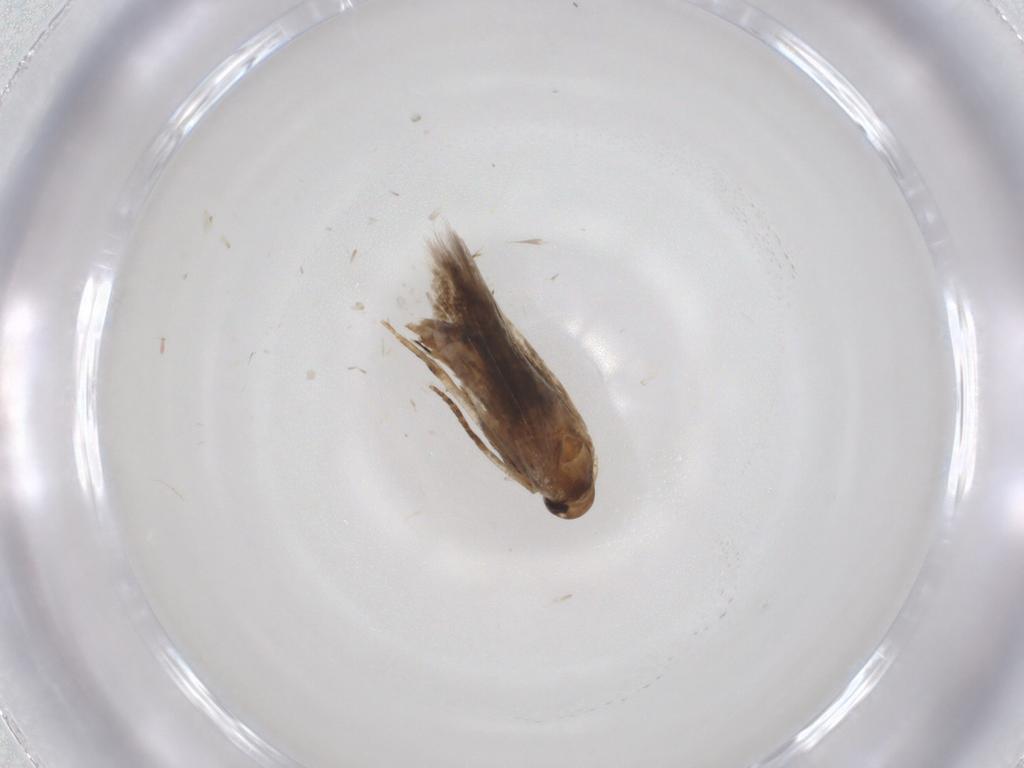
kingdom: Animalia
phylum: Arthropoda
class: Insecta
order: Lepidoptera
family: Cosmopterigidae
